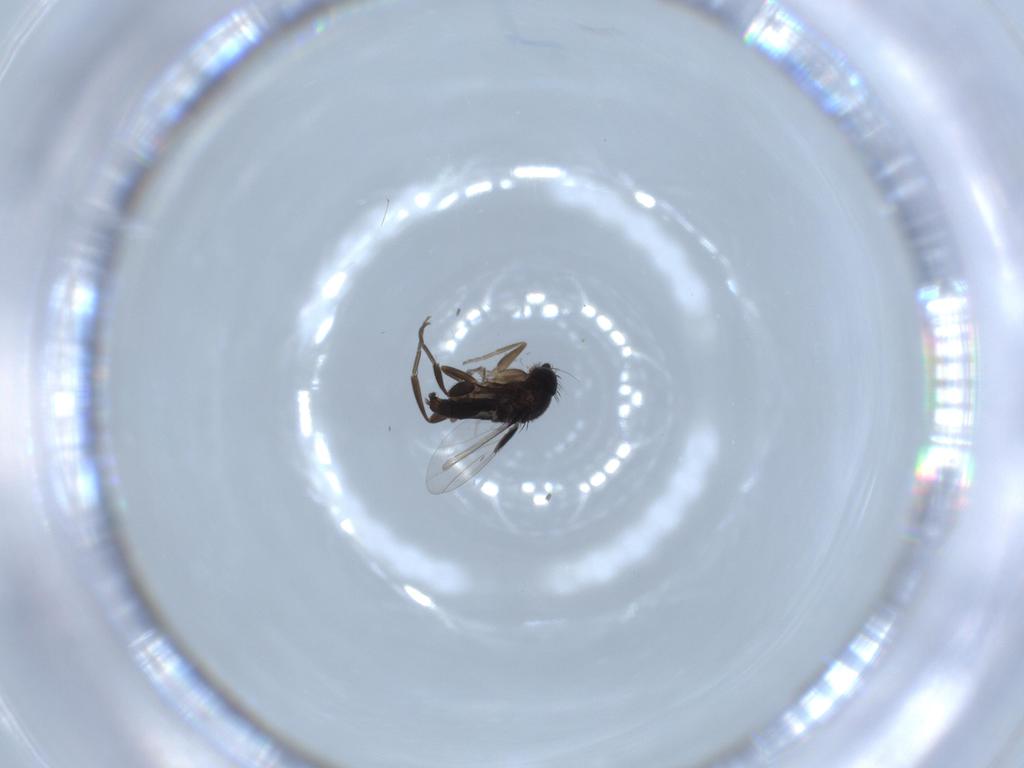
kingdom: Animalia
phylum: Arthropoda
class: Insecta
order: Diptera
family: Phoridae
